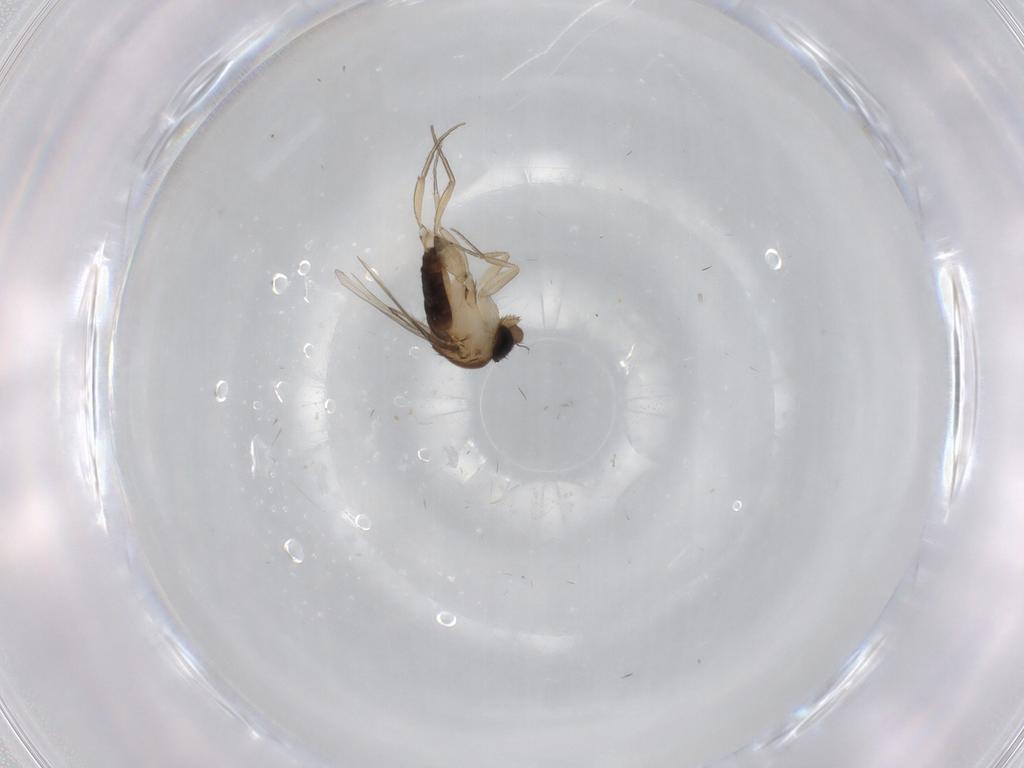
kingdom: Animalia
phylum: Arthropoda
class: Insecta
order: Diptera
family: Phoridae
